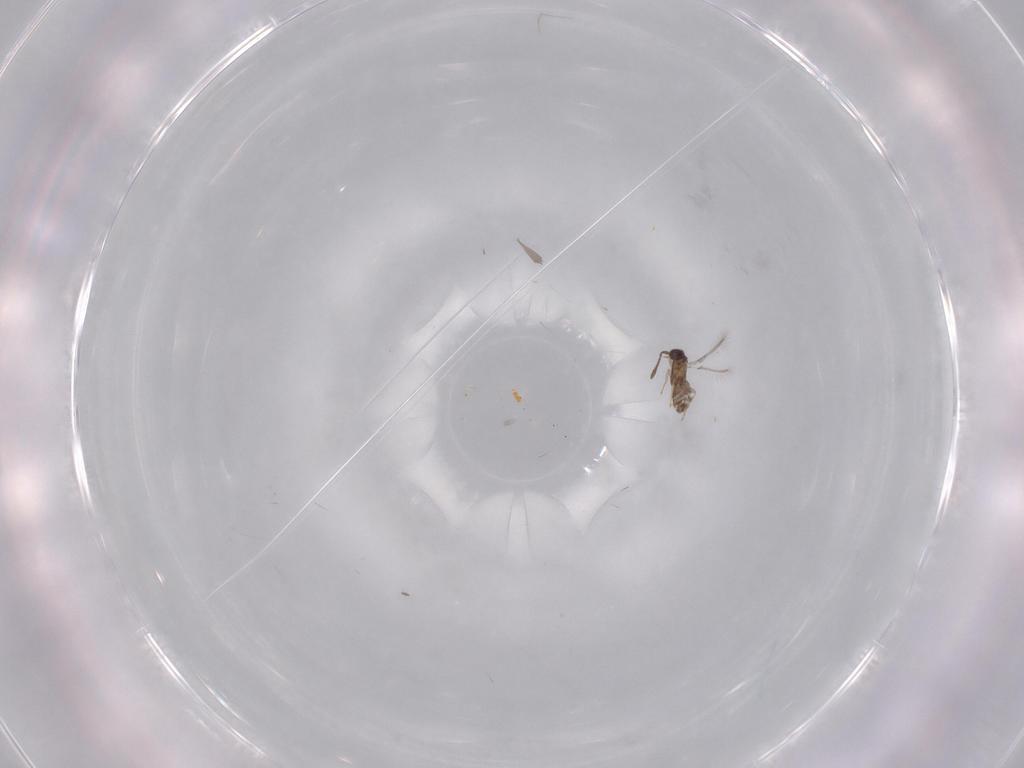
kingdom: Animalia
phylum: Arthropoda
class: Insecta
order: Hymenoptera
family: Mymaridae
